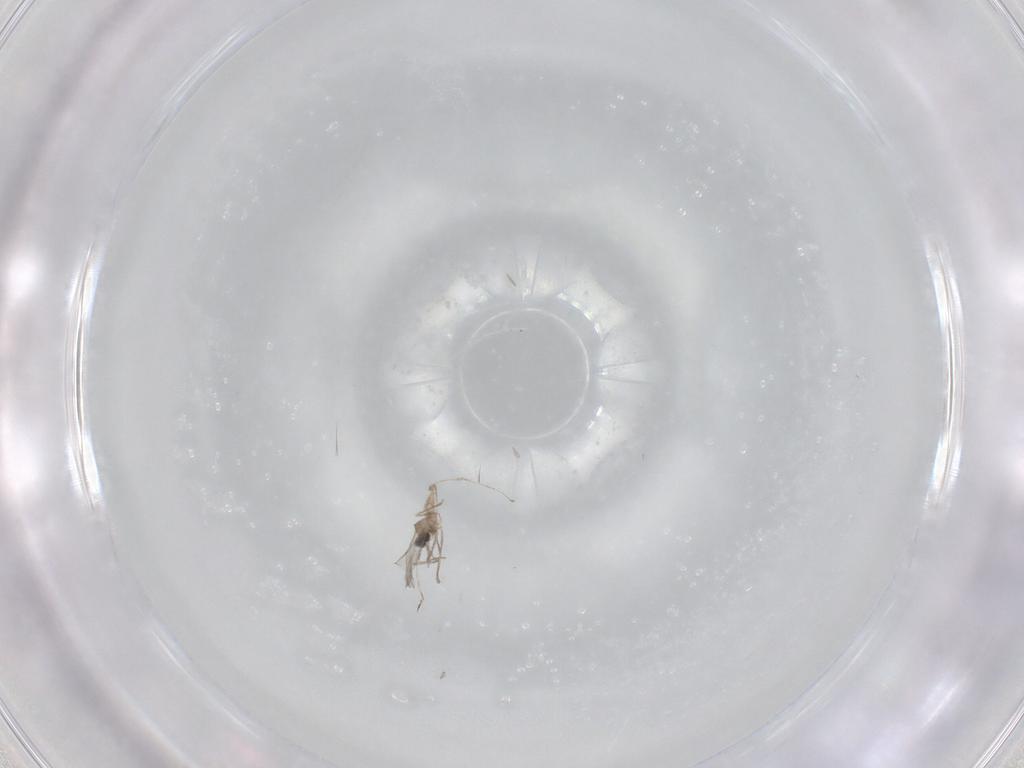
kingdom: Animalia
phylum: Arthropoda
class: Insecta
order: Diptera
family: Cecidomyiidae
